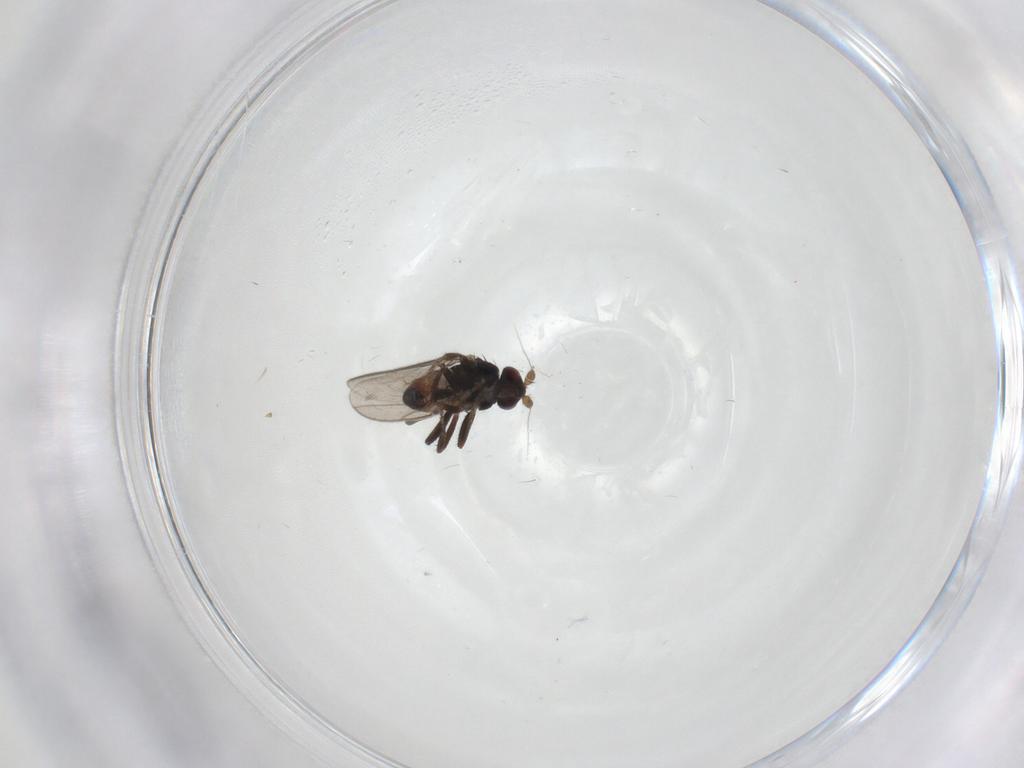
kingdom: Animalia
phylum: Arthropoda
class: Insecta
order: Diptera
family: Sphaeroceridae
